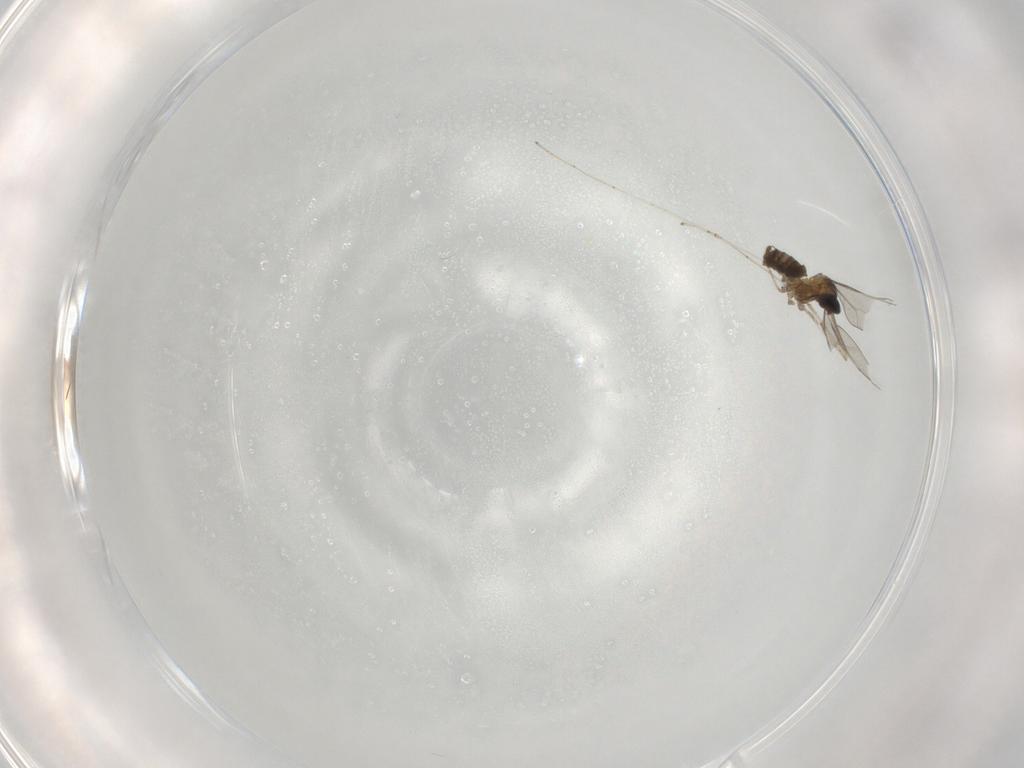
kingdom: Animalia
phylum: Arthropoda
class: Insecta
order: Diptera
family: Cecidomyiidae
